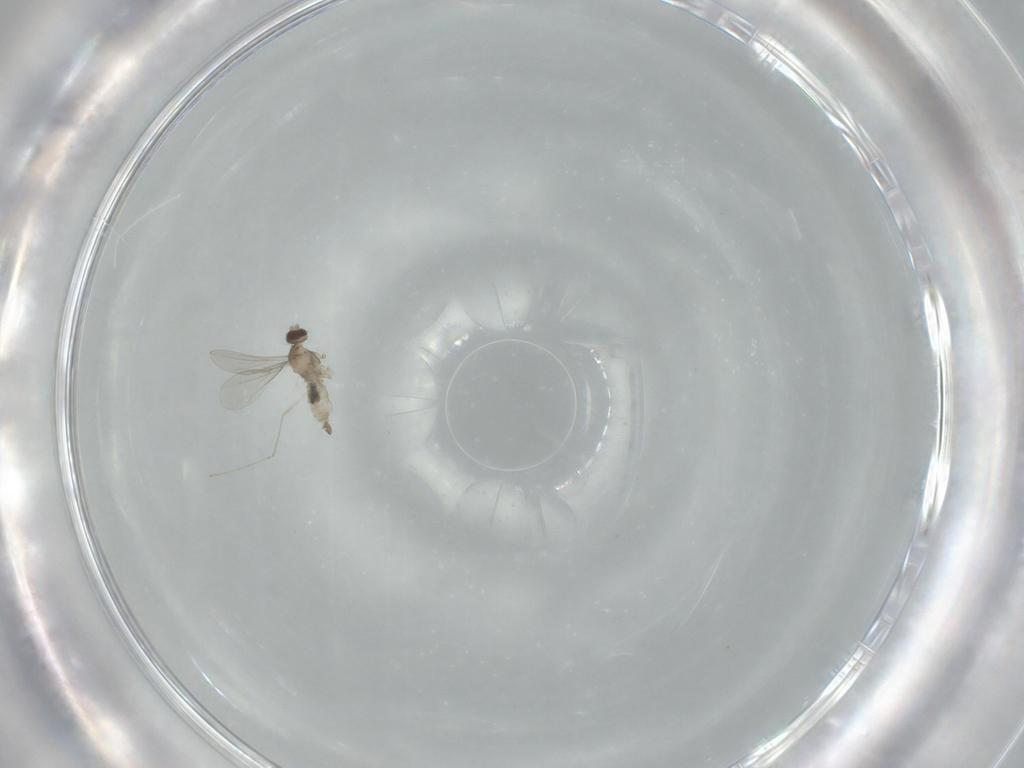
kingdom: Animalia
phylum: Arthropoda
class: Insecta
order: Diptera
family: Cecidomyiidae
